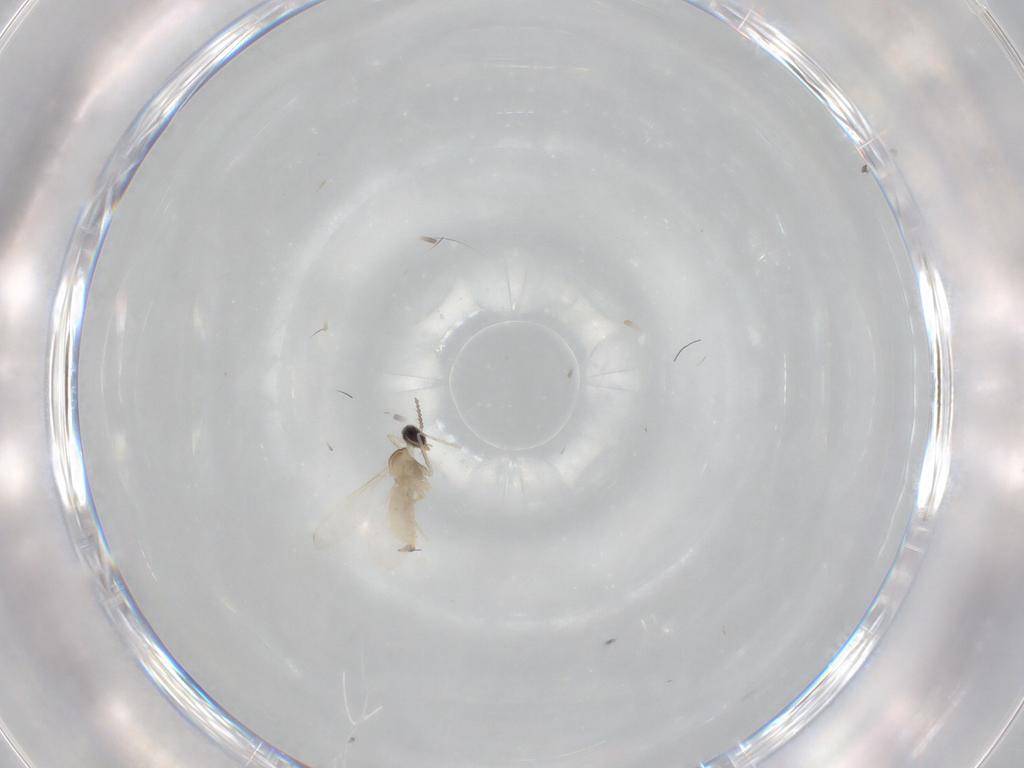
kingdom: Animalia
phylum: Arthropoda
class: Insecta
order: Diptera
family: Cecidomyiidae
